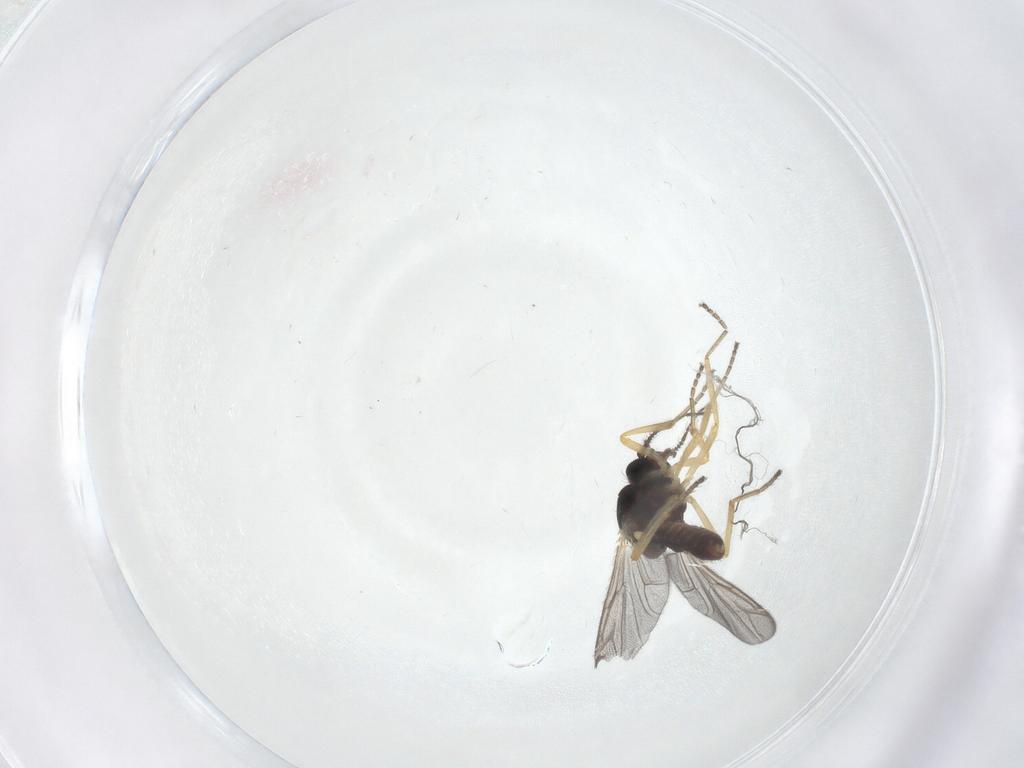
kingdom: Animalia
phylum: Arthropoda
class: Insecta
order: Diptera
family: Ceratopogonidae
